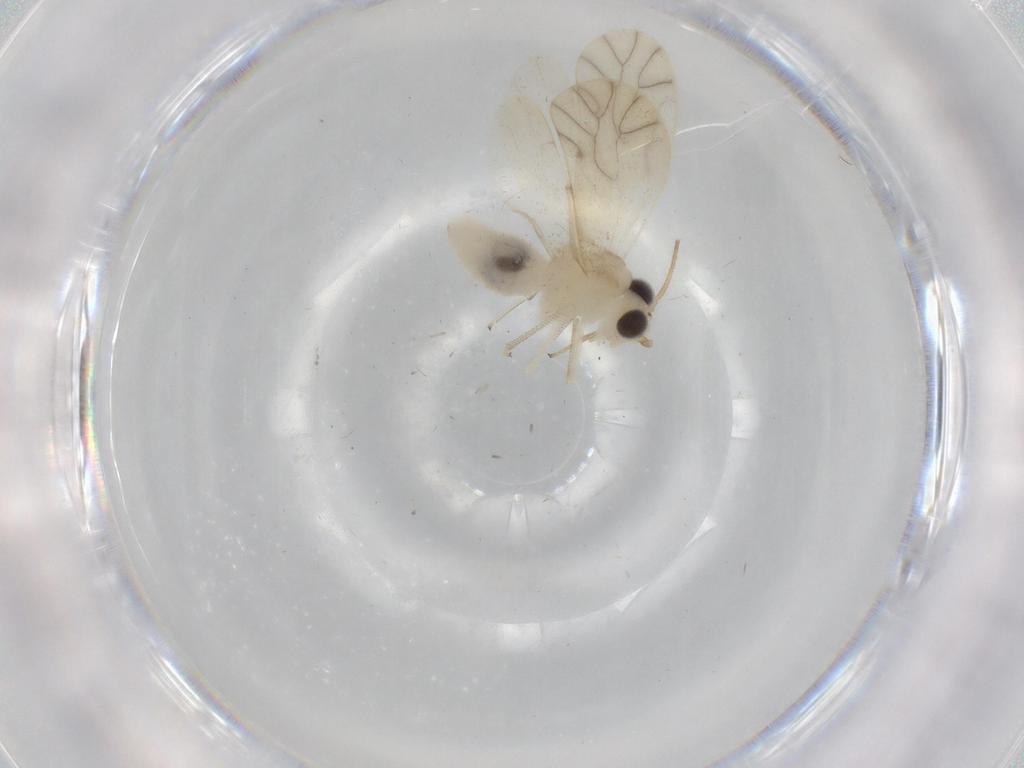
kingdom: Animalia
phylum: Arthropoda
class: Insecta
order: Psocodea
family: Caeciliusidae
